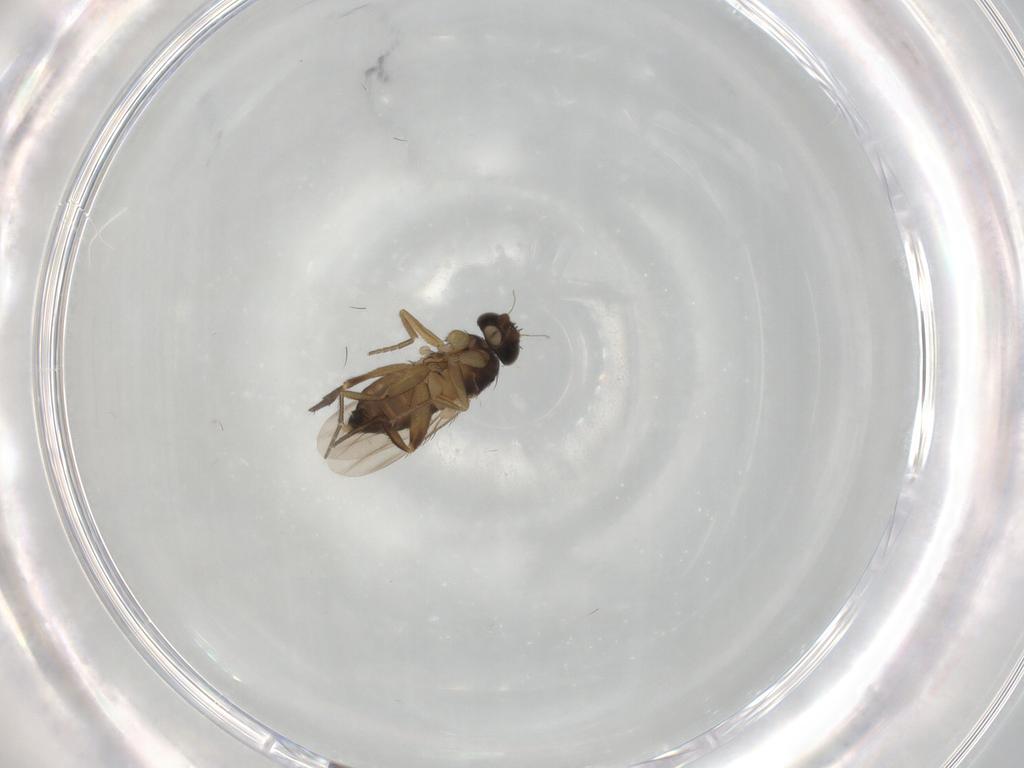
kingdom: Animalia
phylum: Arthropoda
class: Insecta
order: Diptera
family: Phoridae
